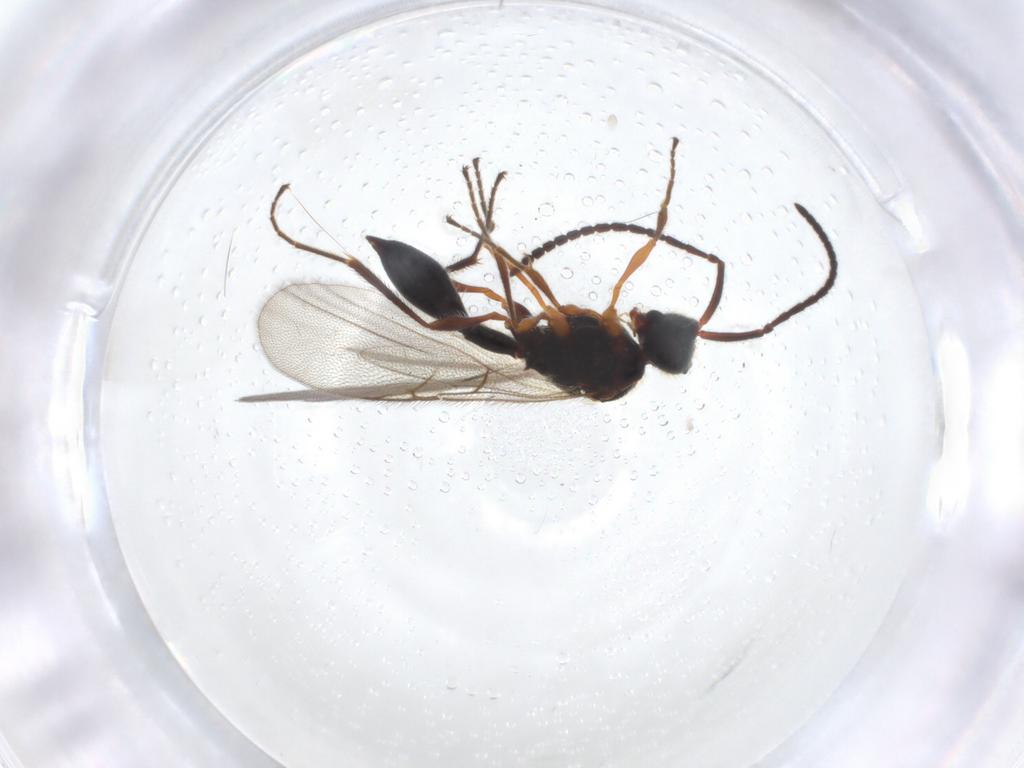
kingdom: Animalia
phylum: Arthropoda
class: Insecta
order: Hymenoptera
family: Diapriidae
